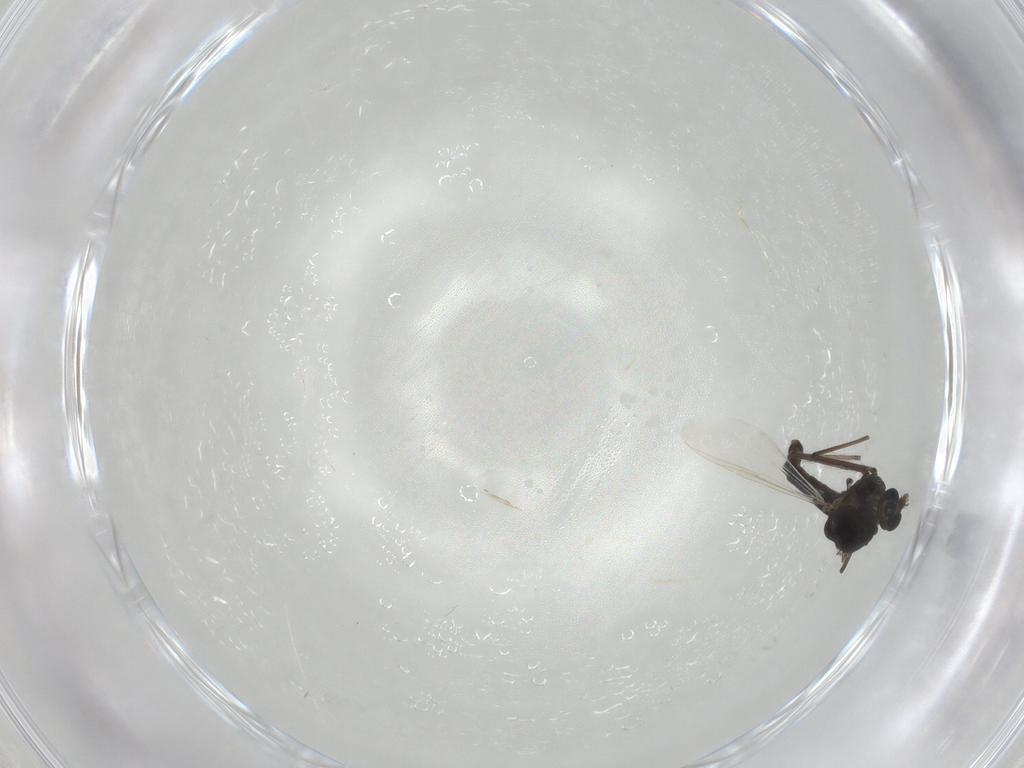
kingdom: Animalia
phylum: Arthropoda
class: Insecta
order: Diptera
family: Chironomidae
